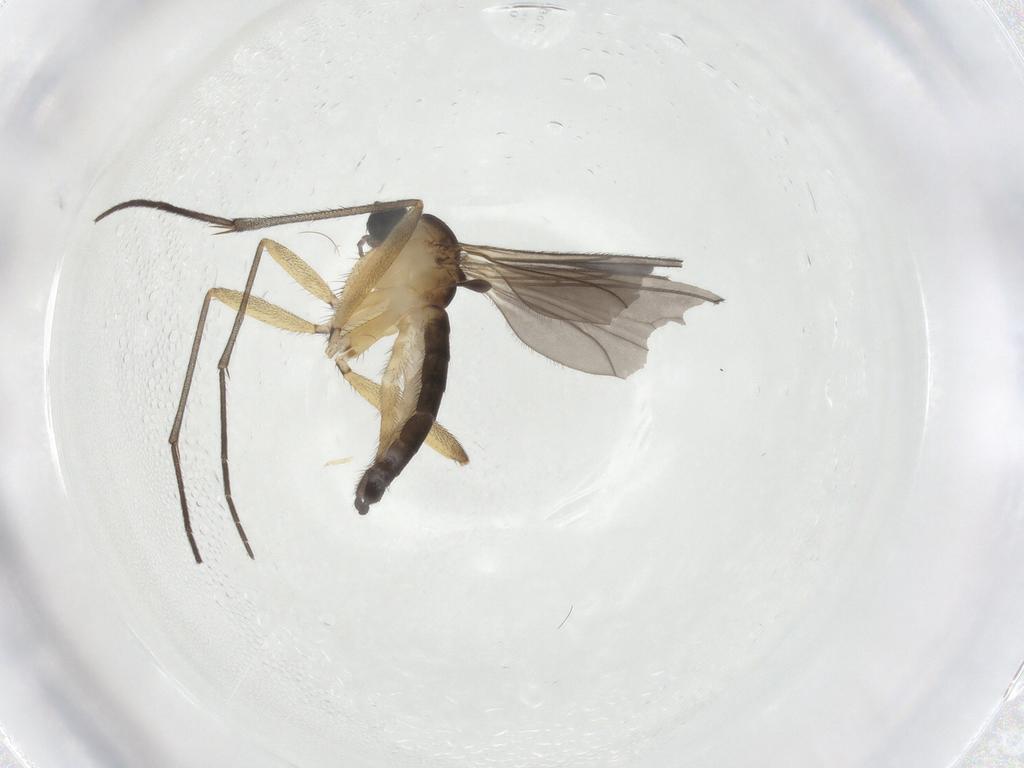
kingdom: Animalia
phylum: Arthropoda
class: Insecta
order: Diptera
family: Sciaridae
